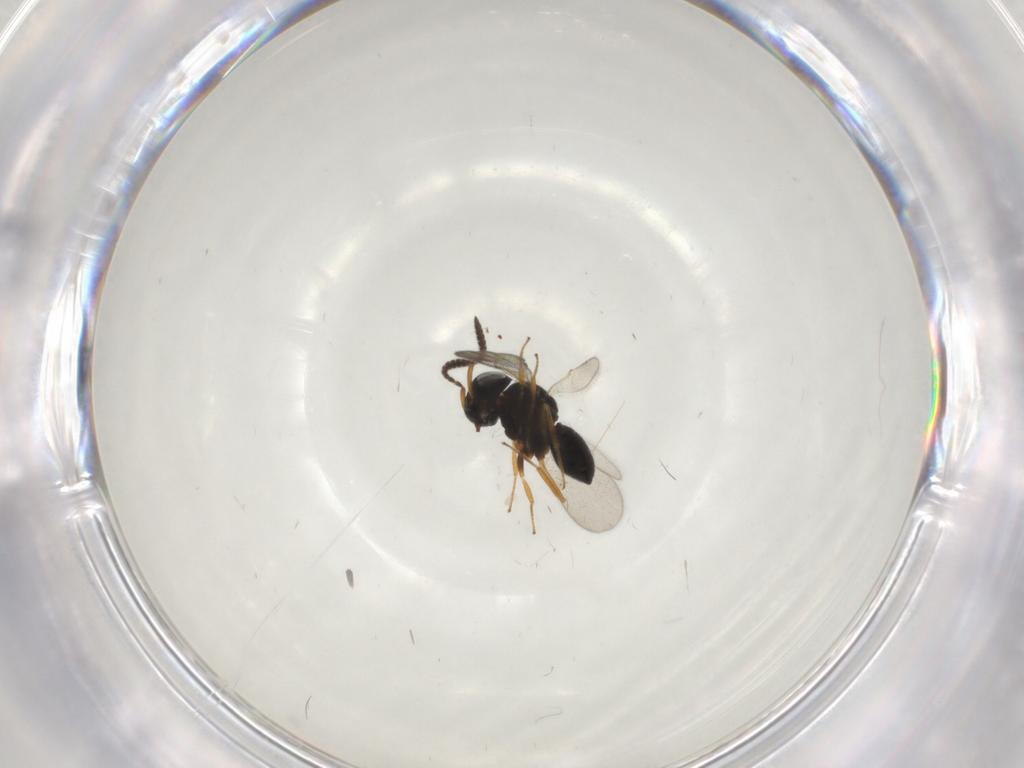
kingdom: Animalia
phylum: Arthropoda
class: Insecta
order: Hymenoptera
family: Scelionidae
